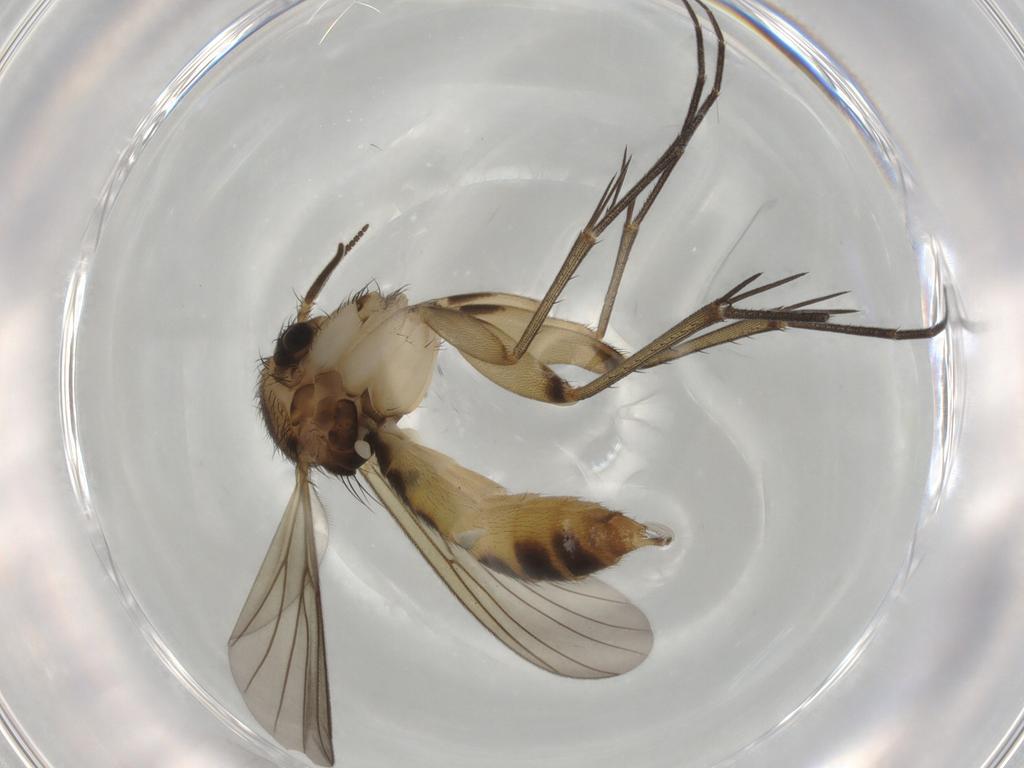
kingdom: Animalia
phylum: Arthropoda
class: Insecta
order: Diptera
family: Mycetophilidae
